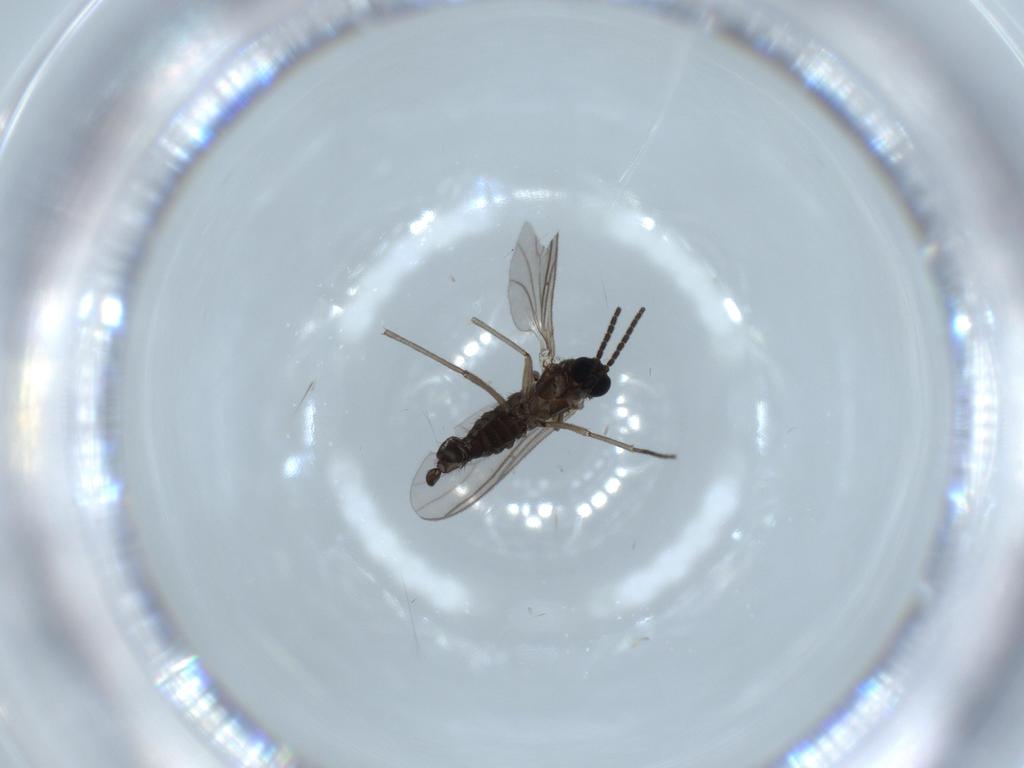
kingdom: Animalia
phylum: Arthropoda
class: Insecta
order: Diptera
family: Sciaridae
